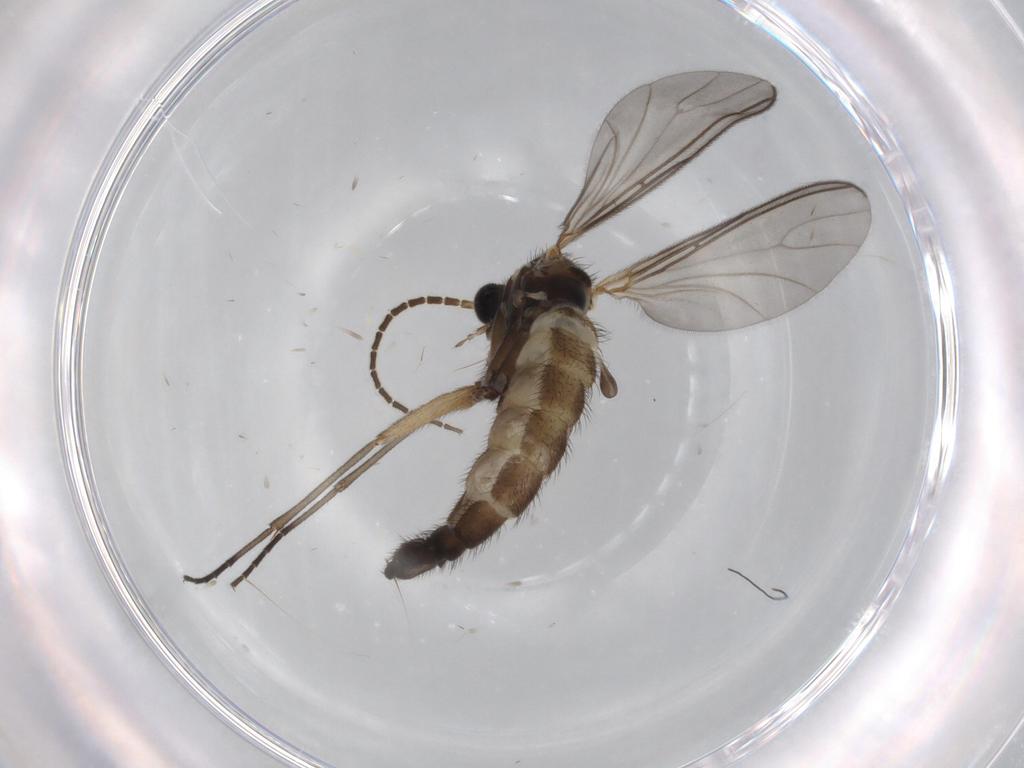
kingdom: Animalia
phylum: Arthropoda
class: Insecta
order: Diptera
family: Sciaridae
